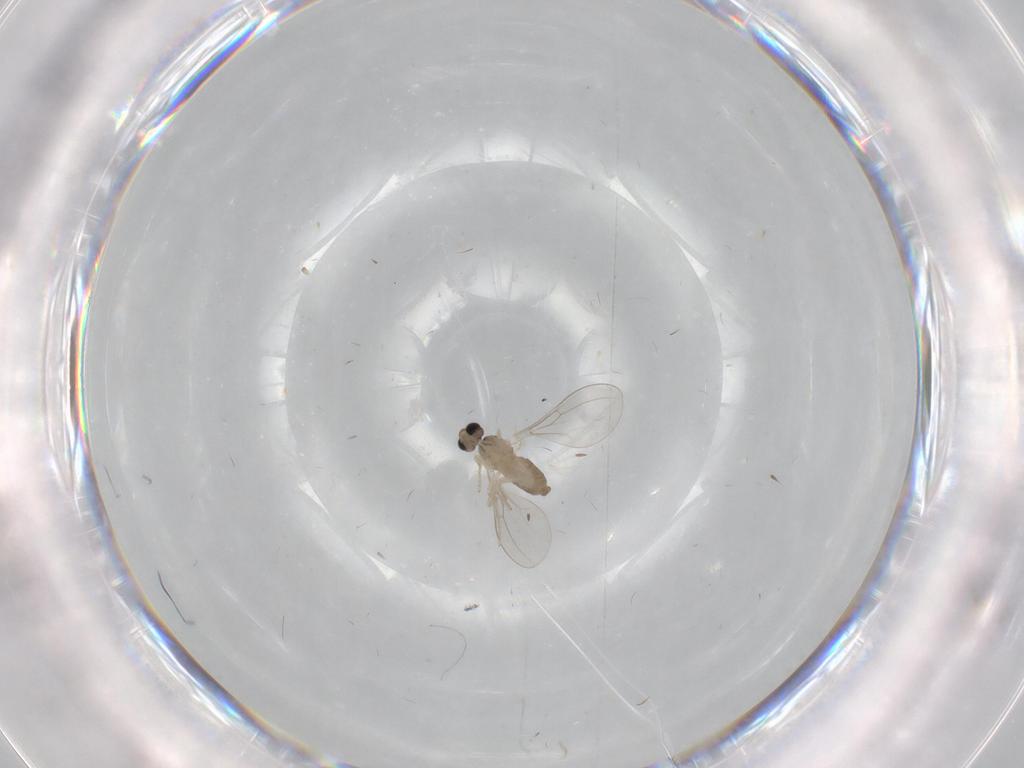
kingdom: Animalia
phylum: Arthropoda
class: Insecta
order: Diptera
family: Cecidomyiidae
